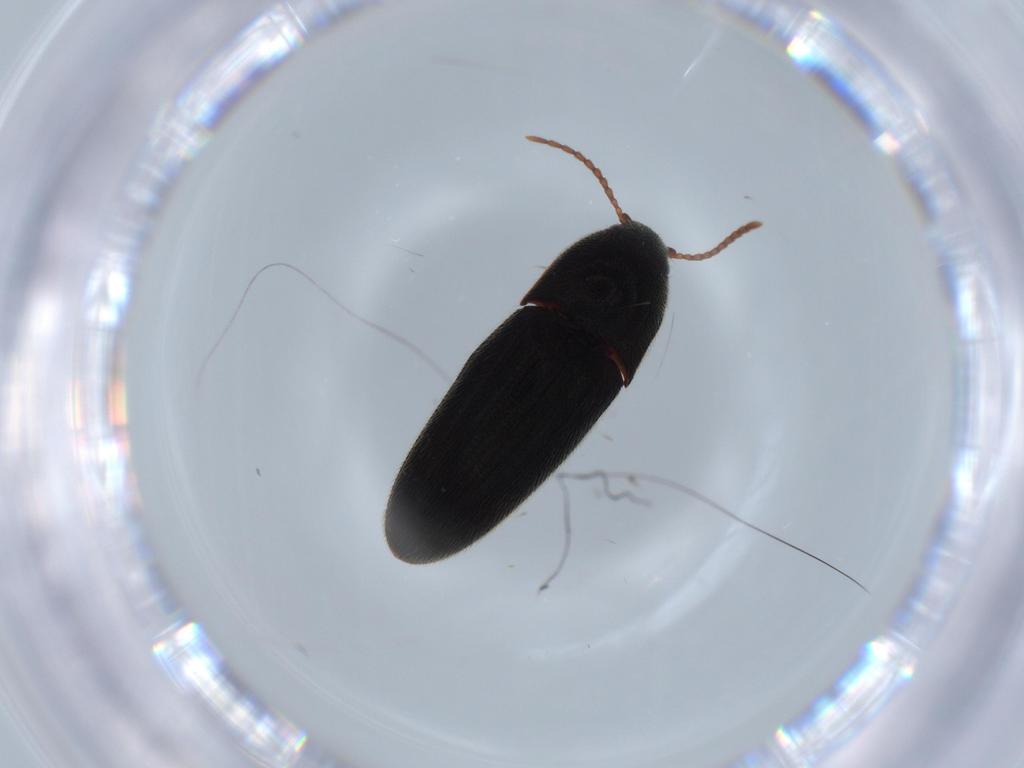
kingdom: Animalia
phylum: Arthropoda
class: Insecta
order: Coleoptera
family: Elateridae
